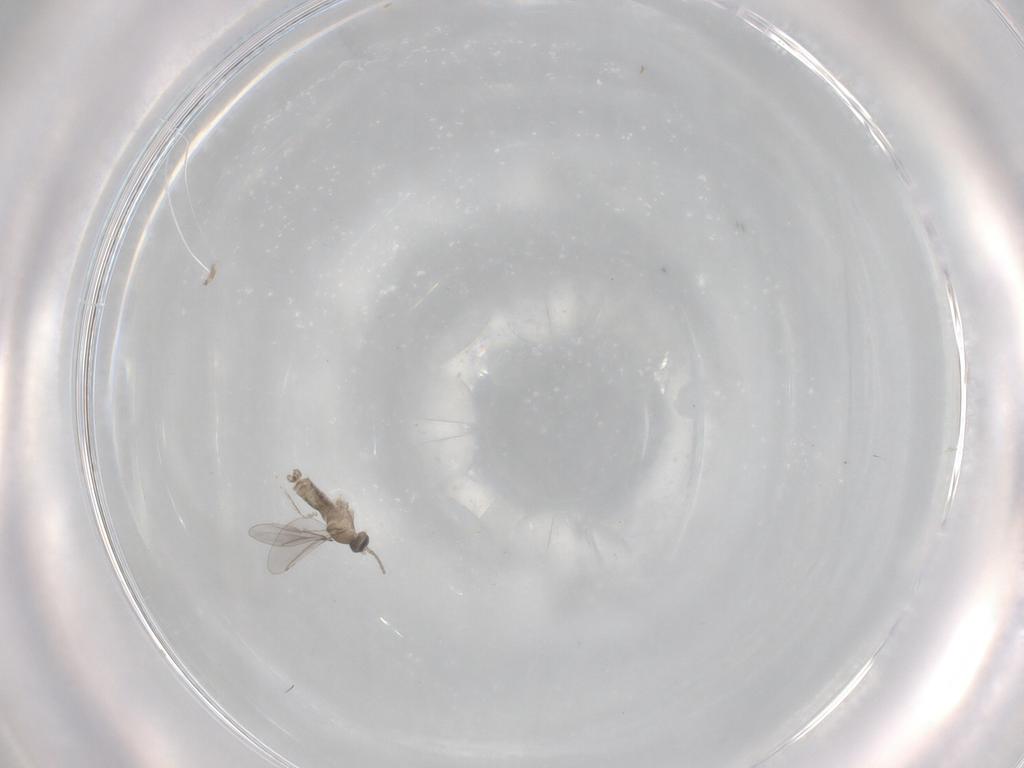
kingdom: Animalia
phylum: Arthropoda
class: Insecta
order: Diptera
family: Cecidomyiidae
